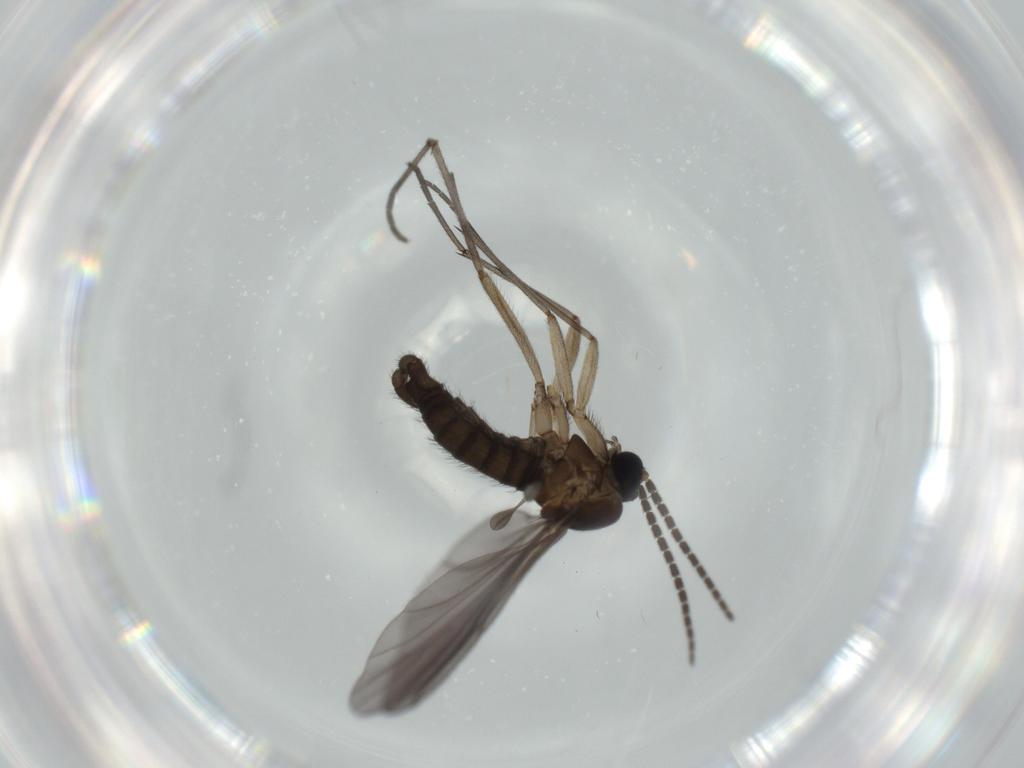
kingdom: Animalia
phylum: Arthropoda
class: Insecta
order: Diptera
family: Sciaridae
